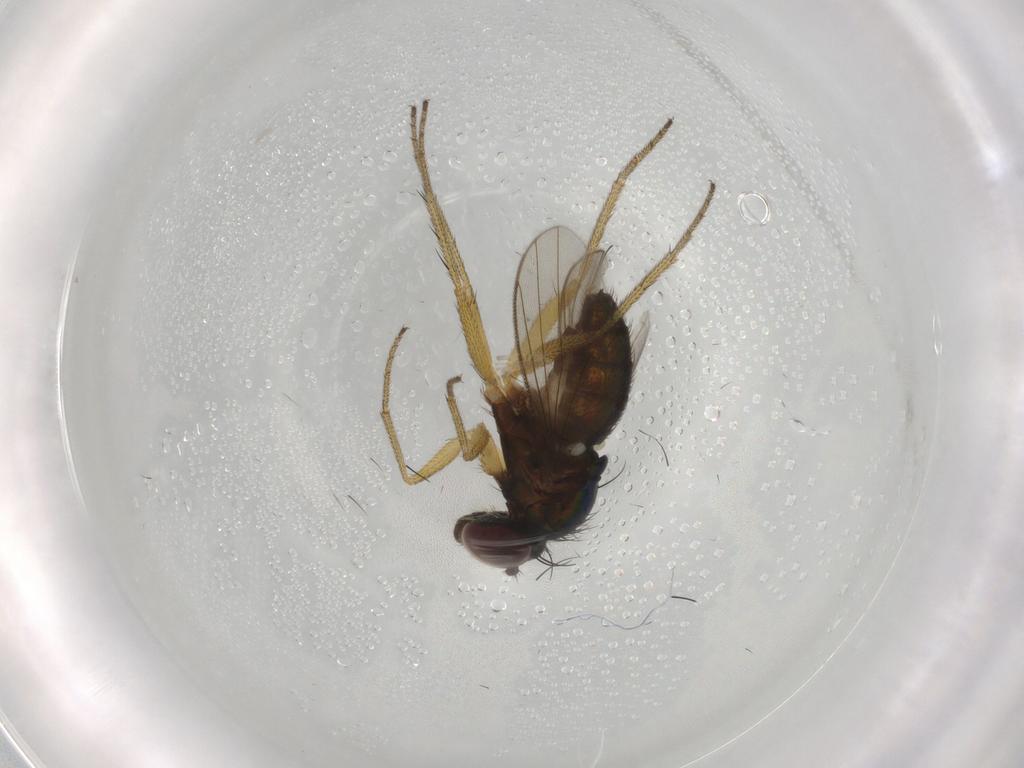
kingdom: Animalia
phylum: Arthropoda
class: Insecta
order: Diptera
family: Dolichopodidae
